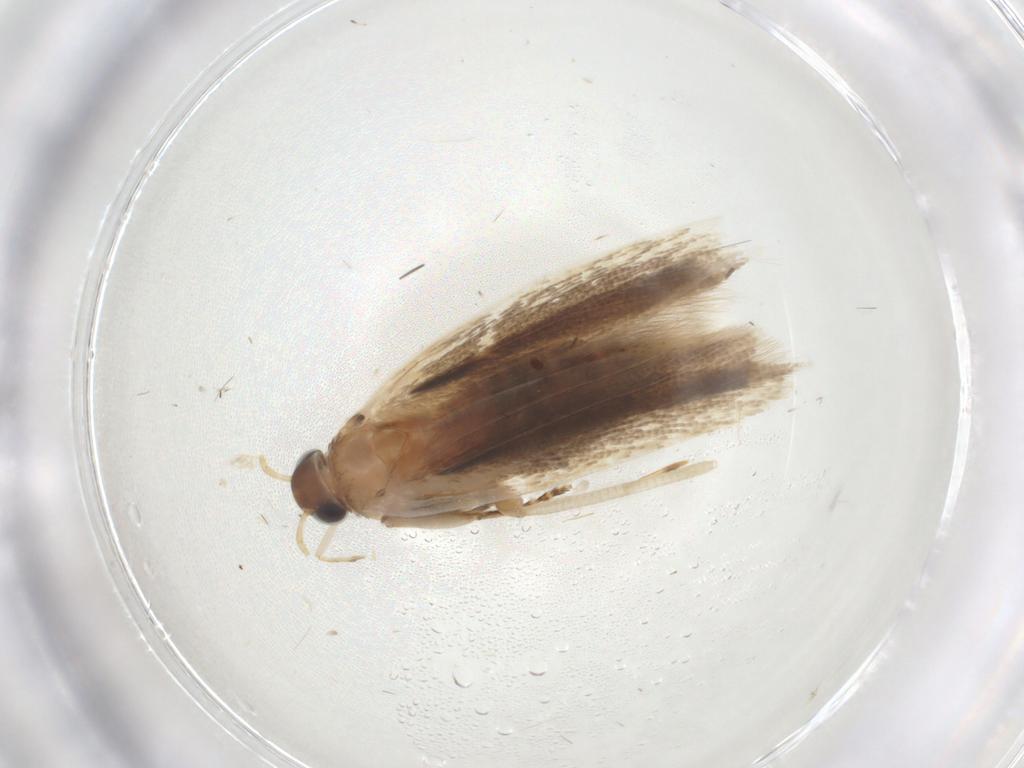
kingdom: Animalia
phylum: Arthropoda
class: Insecta
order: Lepidoptera
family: Gelechiidae
